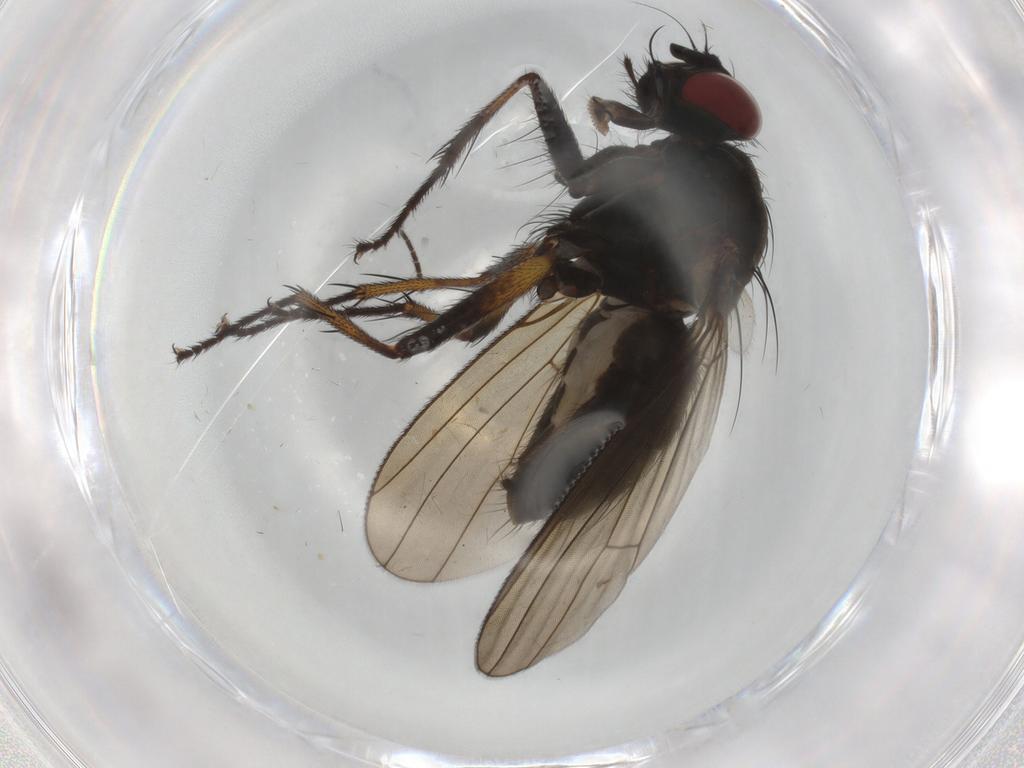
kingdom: Animalia
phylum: Arthropoda
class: Insecta
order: Diptera
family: Muscidae
